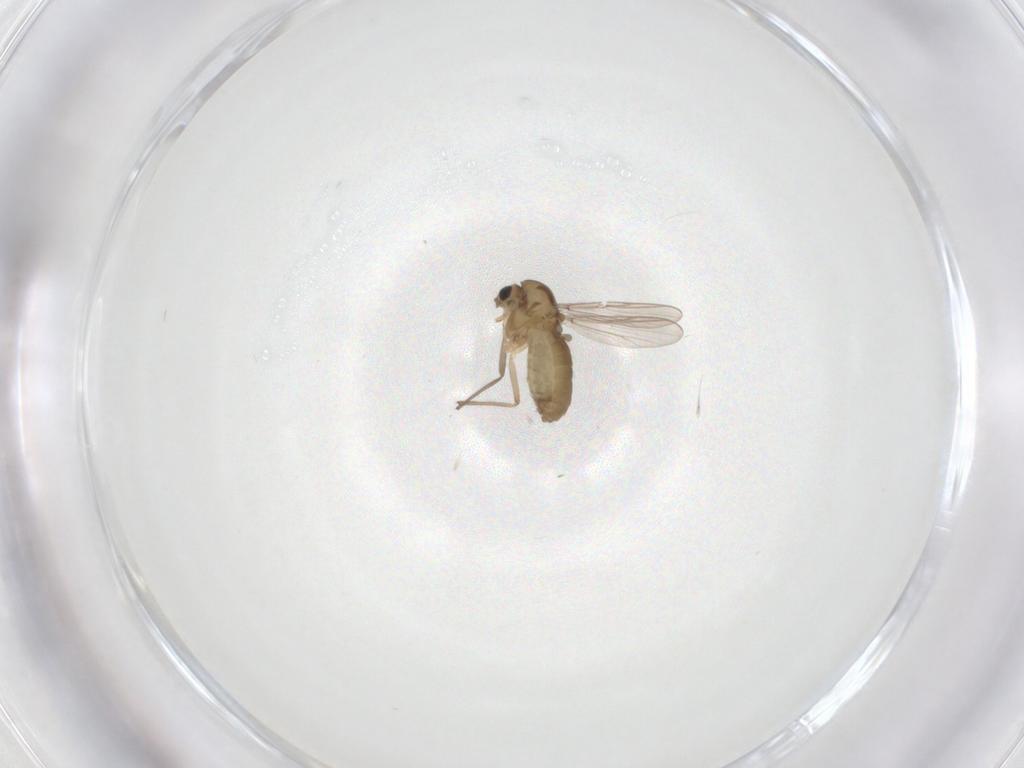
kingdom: Animalia
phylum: Arthropoda
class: Insecta
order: Diptera
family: Chironomidae
